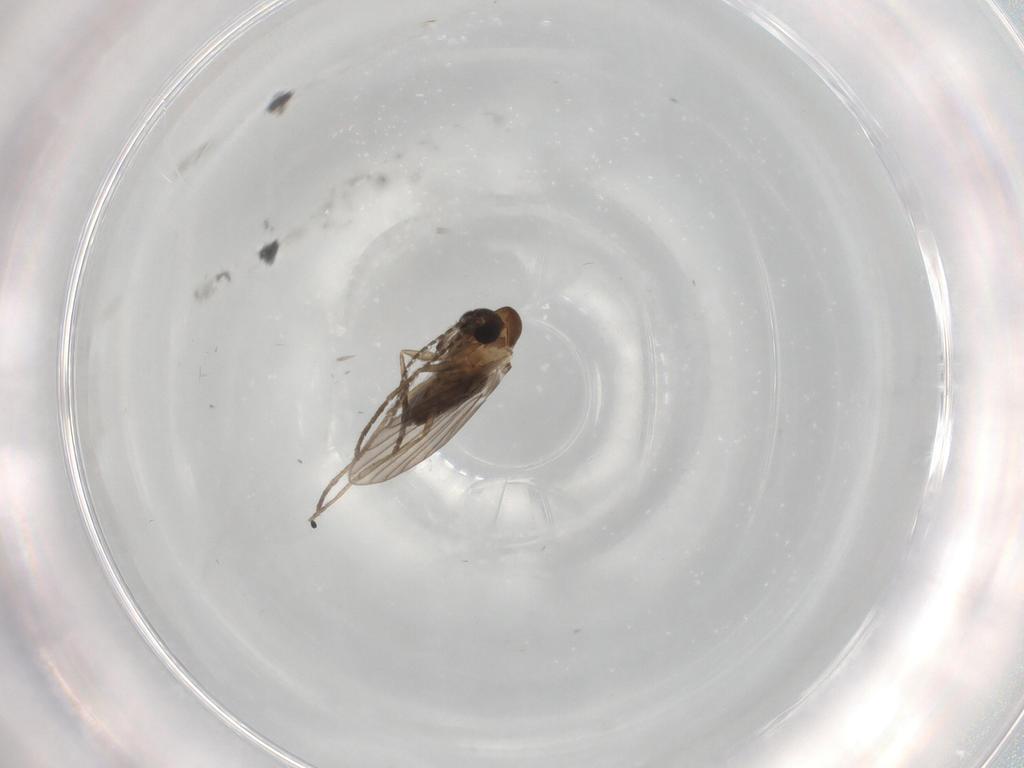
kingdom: Animalia
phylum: Arthropoda
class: Insecta
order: Diptera
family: Psychodidae
